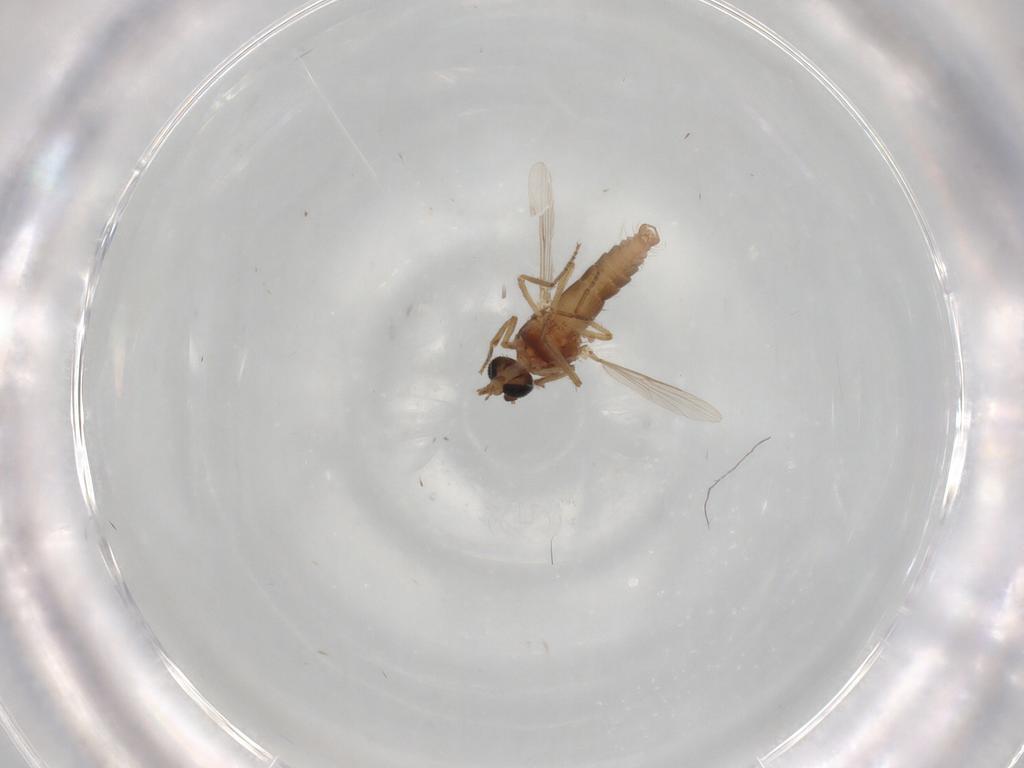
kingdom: Animalia
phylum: Arthropoda
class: Insecta
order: Diptera
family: Ceratopogonidae
